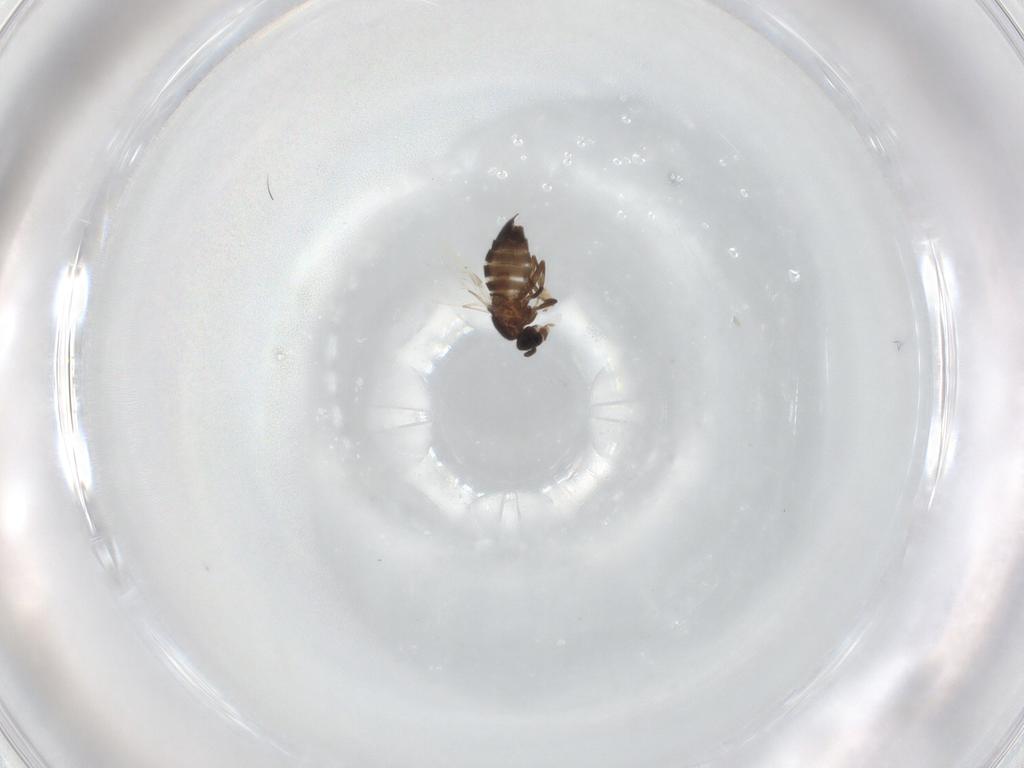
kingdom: Animalia
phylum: Arthropoda
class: Insecta
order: Diptera
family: Scatopsidae
